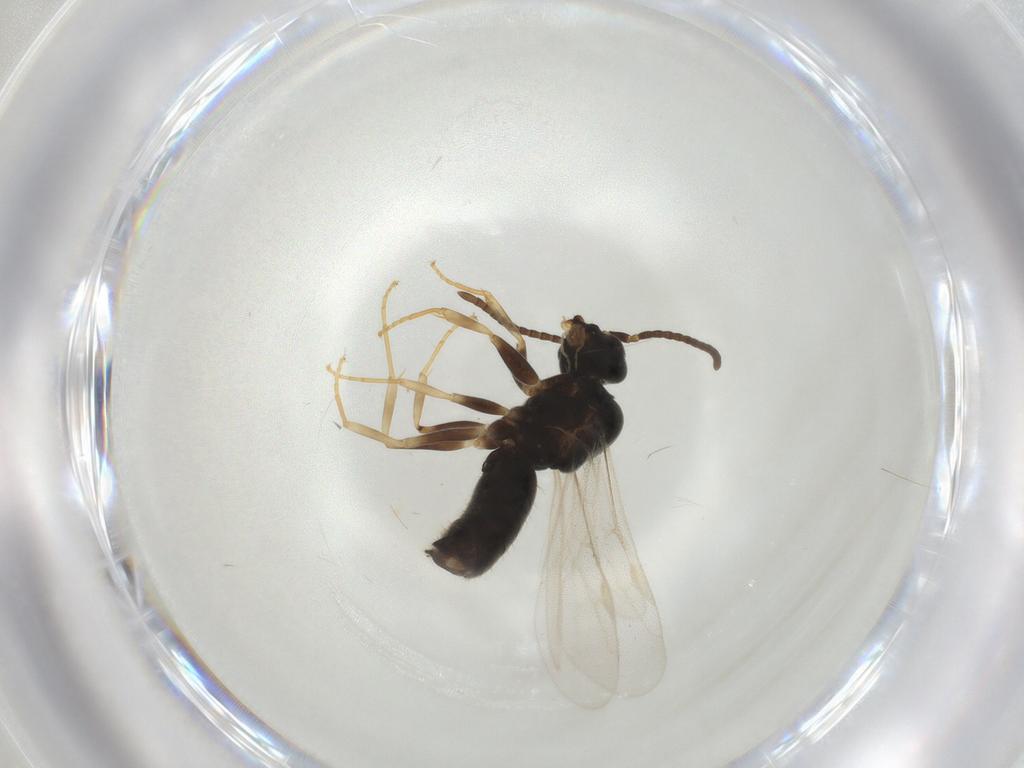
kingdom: Animalia
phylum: Arthropoda
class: Insecta
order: Hymenoptera
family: Formicidae
